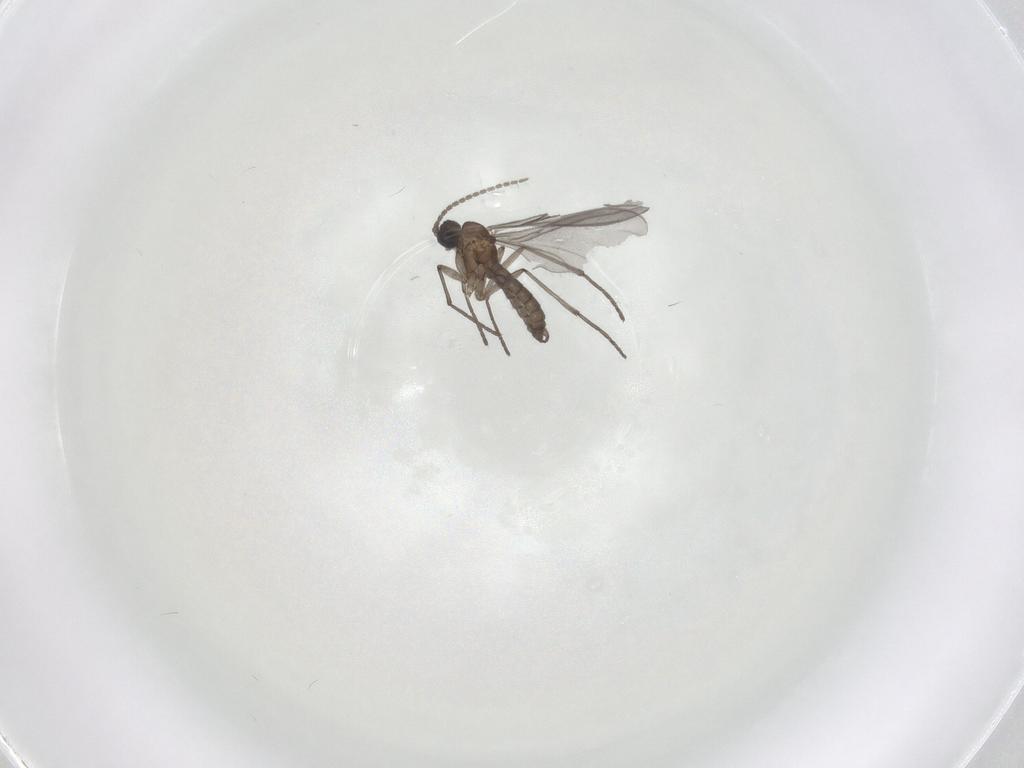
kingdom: Animalia
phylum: Arthropoda
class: Insecta
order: Diptera
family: Sciaridae
